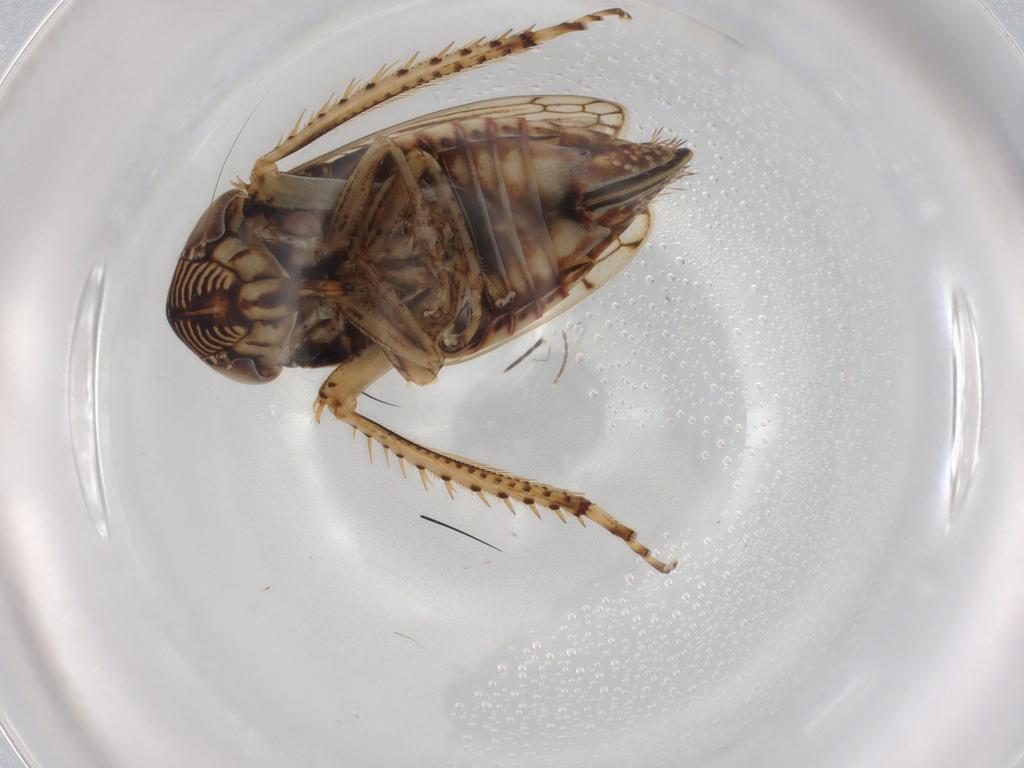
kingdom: Animalia
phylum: Arthropoda
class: Insecta
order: Hemiptera
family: Cicadellidae
